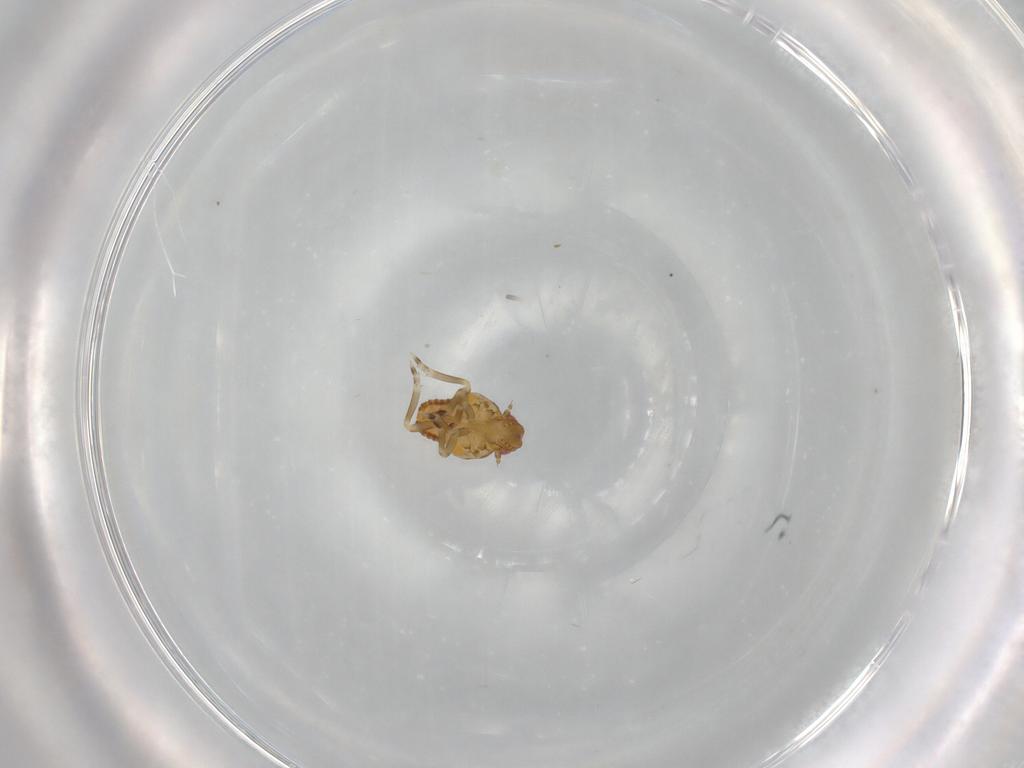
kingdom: Animalia
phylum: Arthropoda
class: Insecta
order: Hemiptera
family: Flatidae
